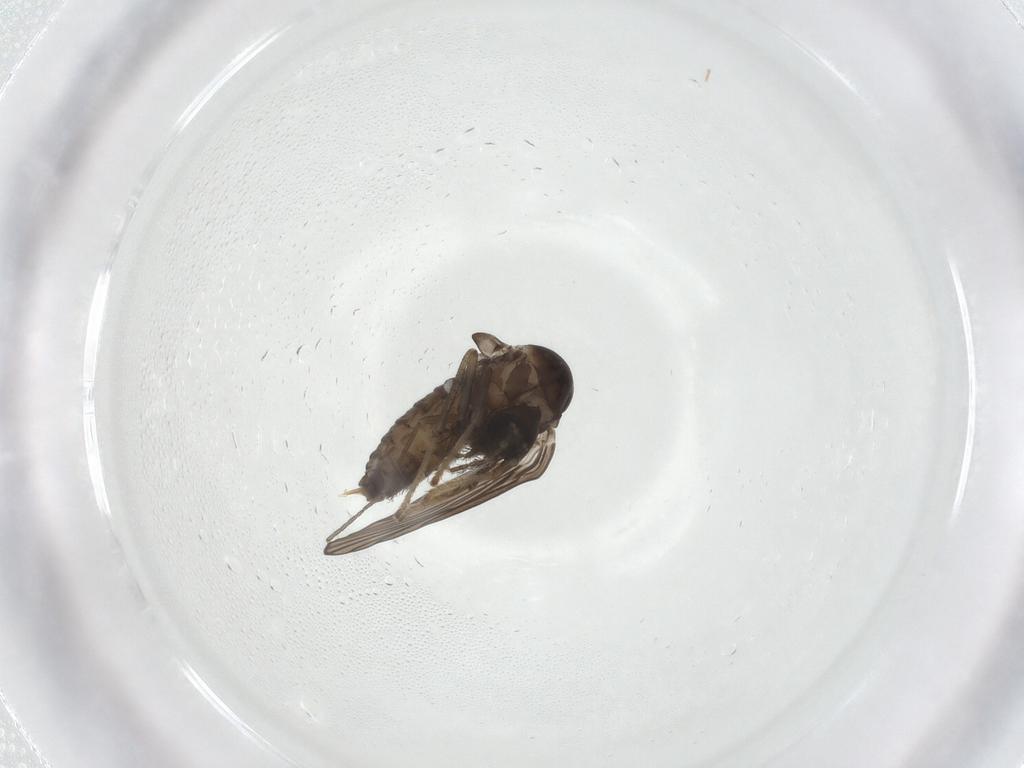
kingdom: Animalia
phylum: Arthropoda
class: Insecta
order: Diptera
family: Psychodidae
